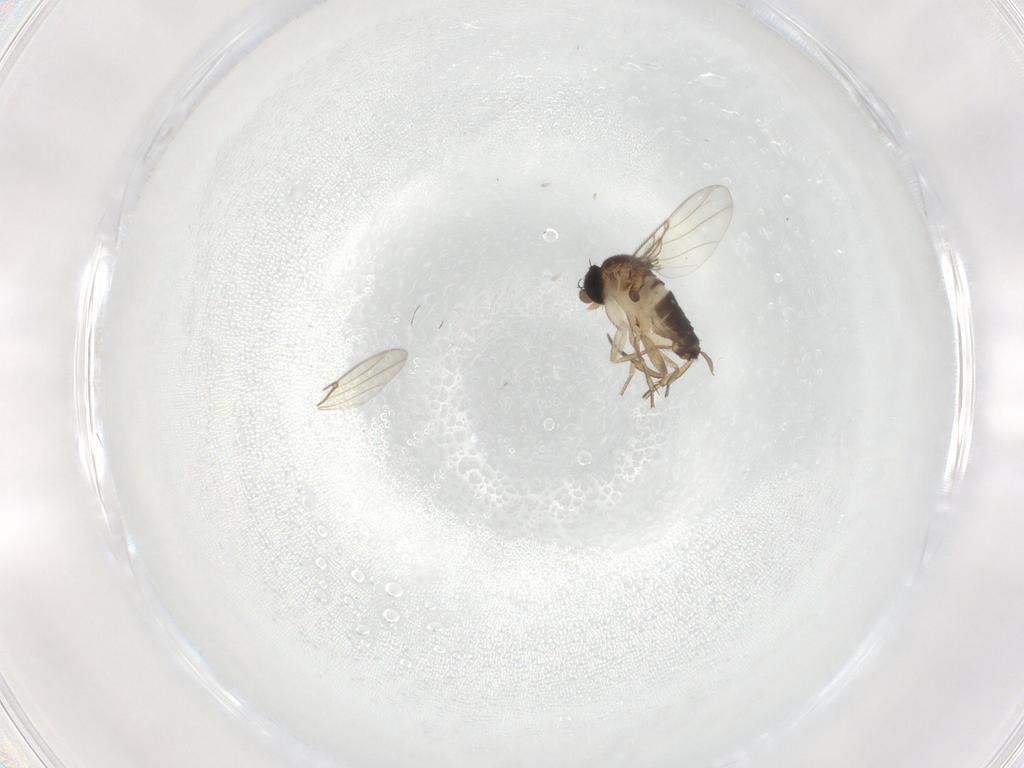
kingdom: Animalia
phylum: Arthropoda
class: Insecta
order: Diptera
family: Phoridae
